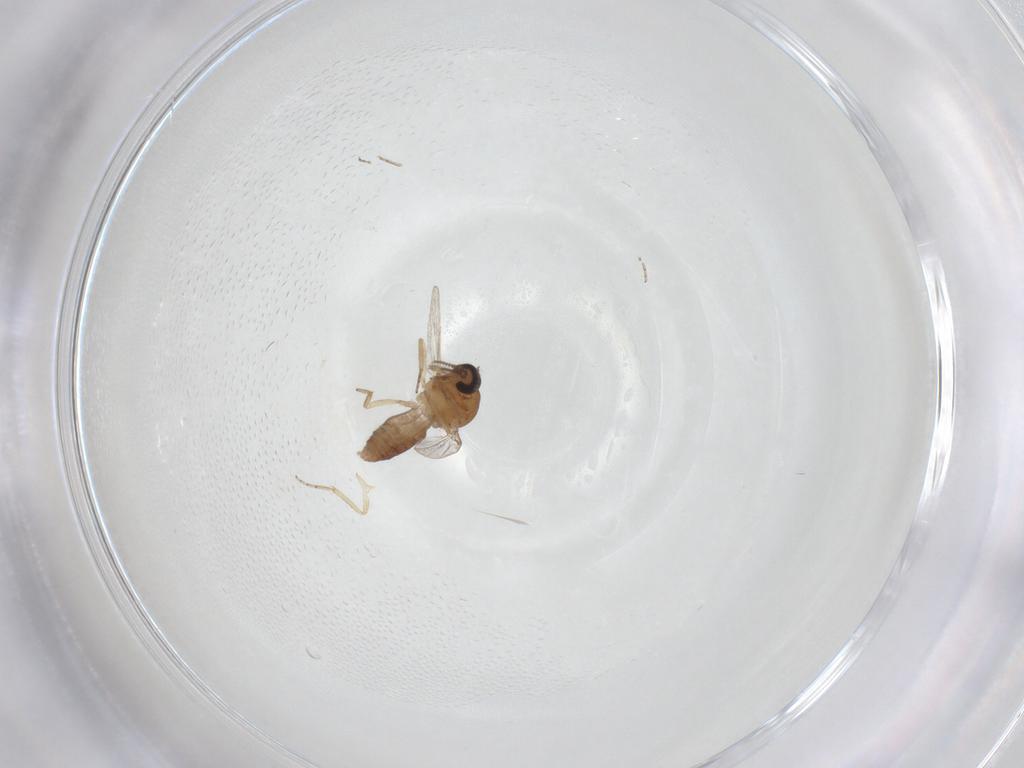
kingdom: Animalia
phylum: Arthropoda
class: Insecta
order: Diptera
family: Ceratopogonidae
